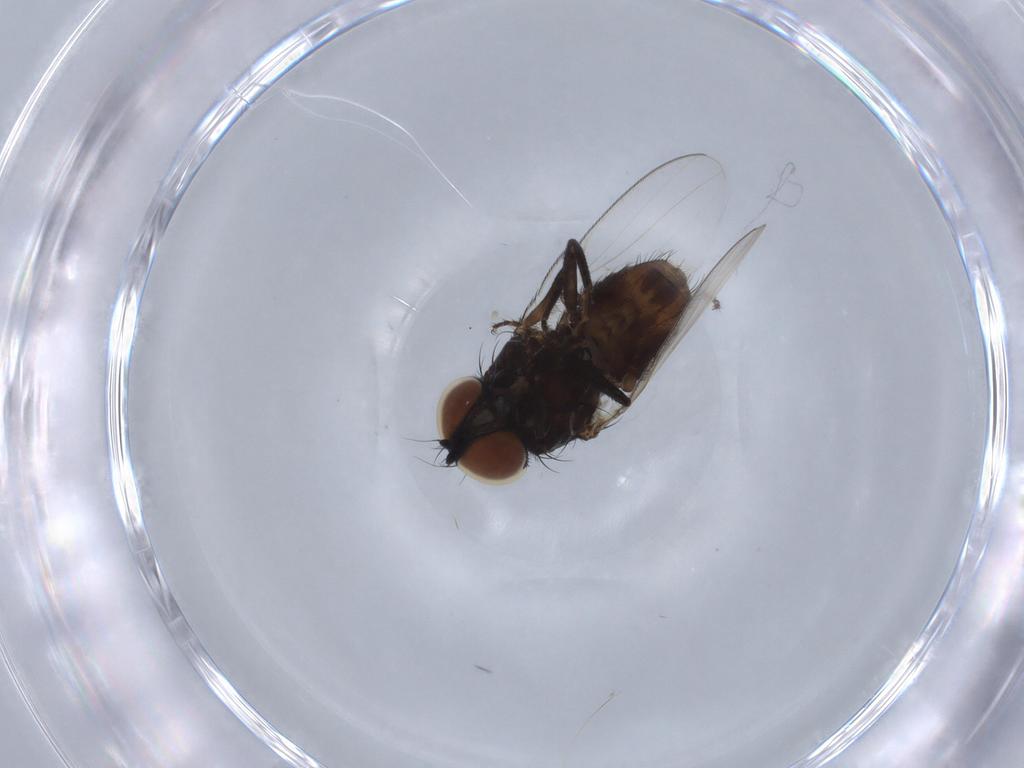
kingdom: Animalia
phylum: Arthropoda
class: Insecta
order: Diptera
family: Milichiidae
